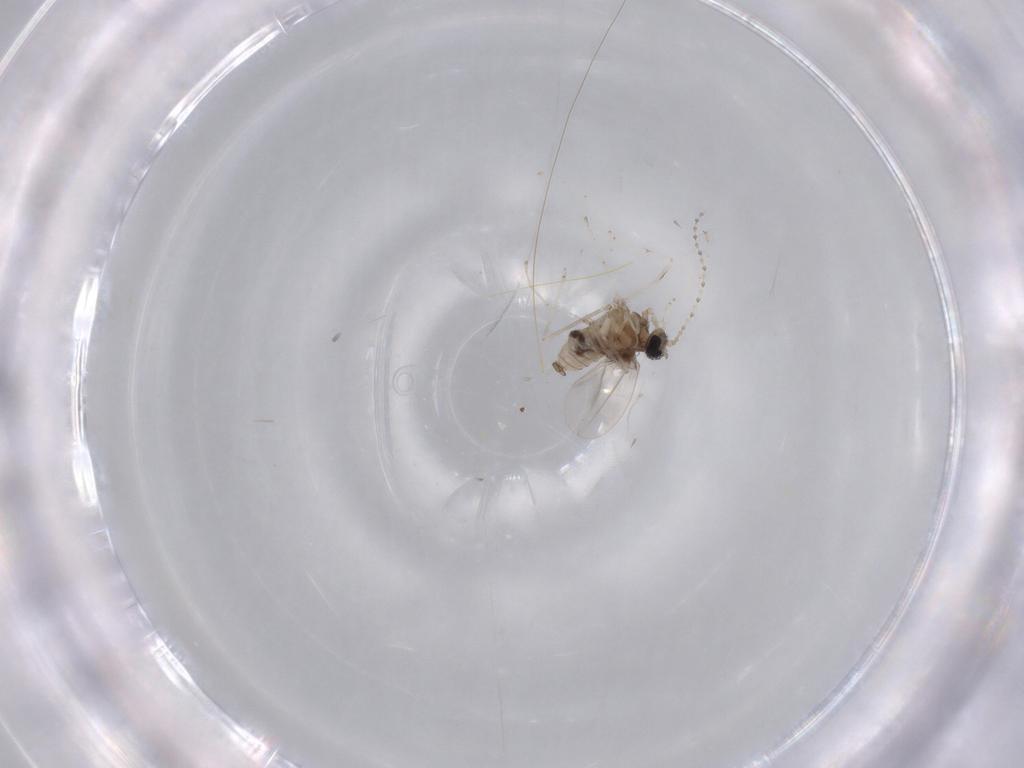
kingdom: Animalia
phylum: Arthropoda
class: Insecta
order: Diptera
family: Cecidomyiidae
